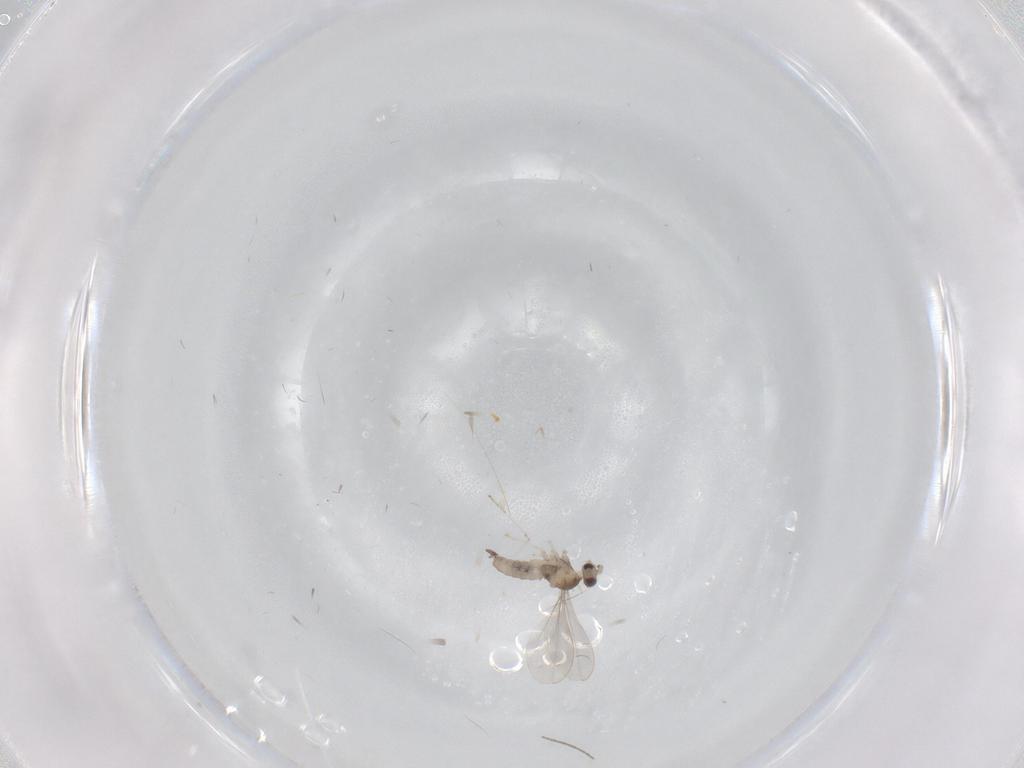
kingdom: Animalia
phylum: Arthropoda
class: Insecta
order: Diptera
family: Cecidomyiidae
